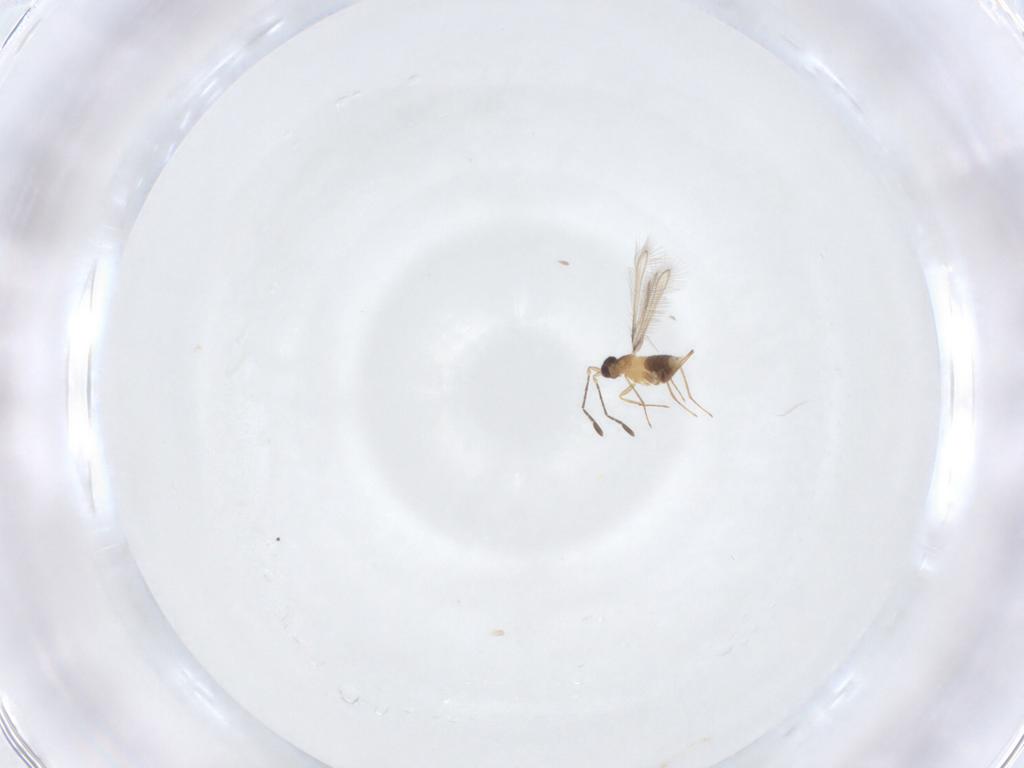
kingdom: Animalia
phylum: Arthropoda
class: Insecta
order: Hymenoptera
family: Mymaridae
